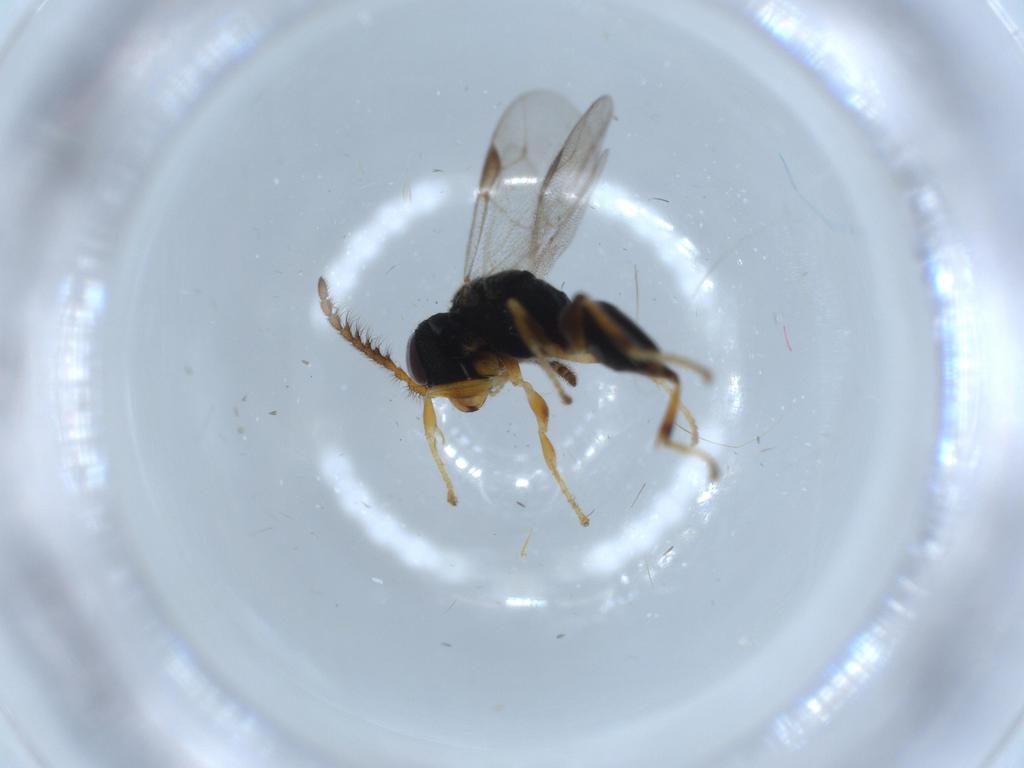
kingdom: Animalia
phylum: Arthropoda
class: Insecta
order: Hymenoptera
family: Dryinidae
